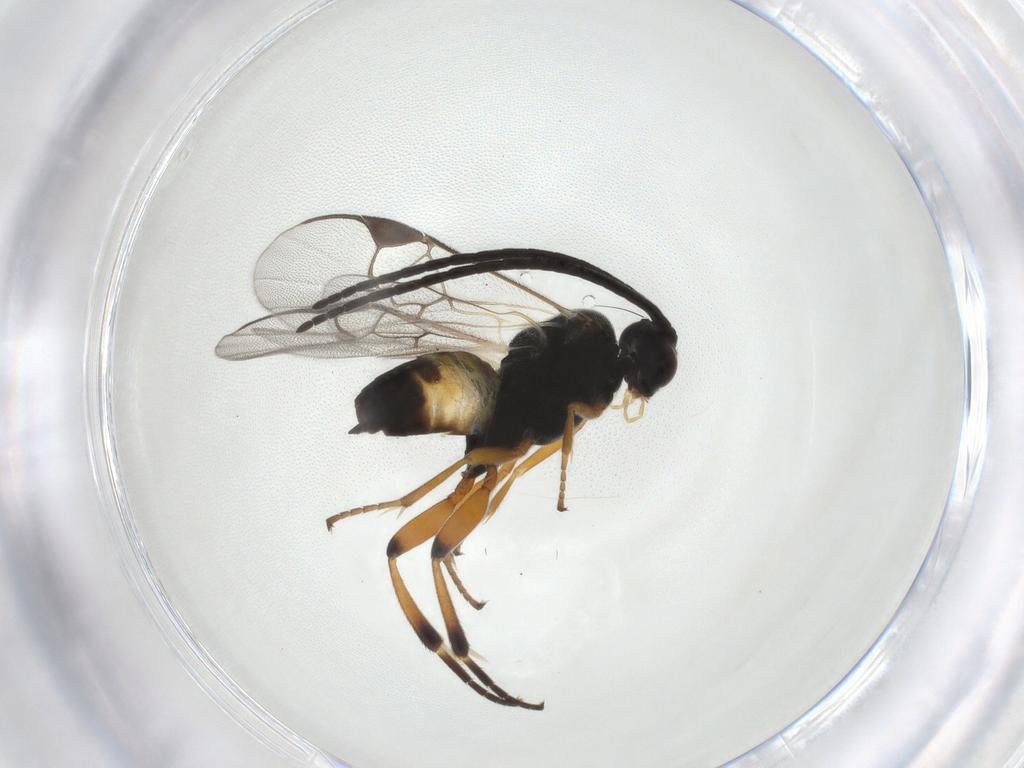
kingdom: Animalia
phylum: Arthropoda
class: Insecta
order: Hymenoptera
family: Braconidae
